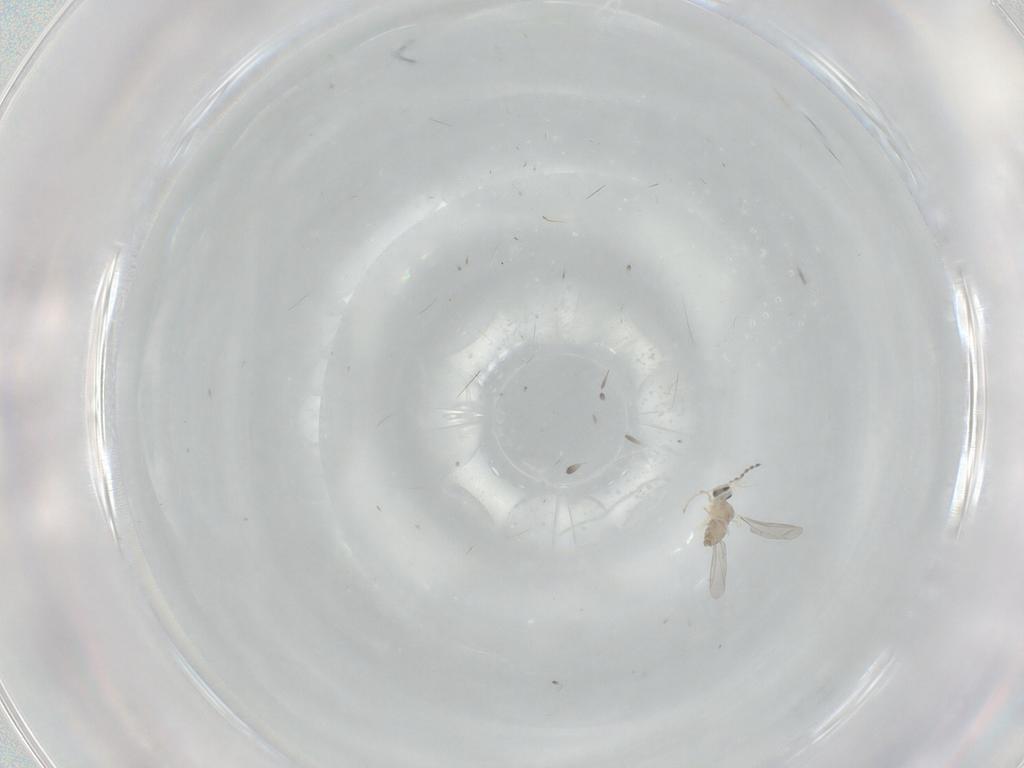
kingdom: Animalia
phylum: Arthropoda
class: Insecta
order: Diptera
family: Cecidomyiidae
